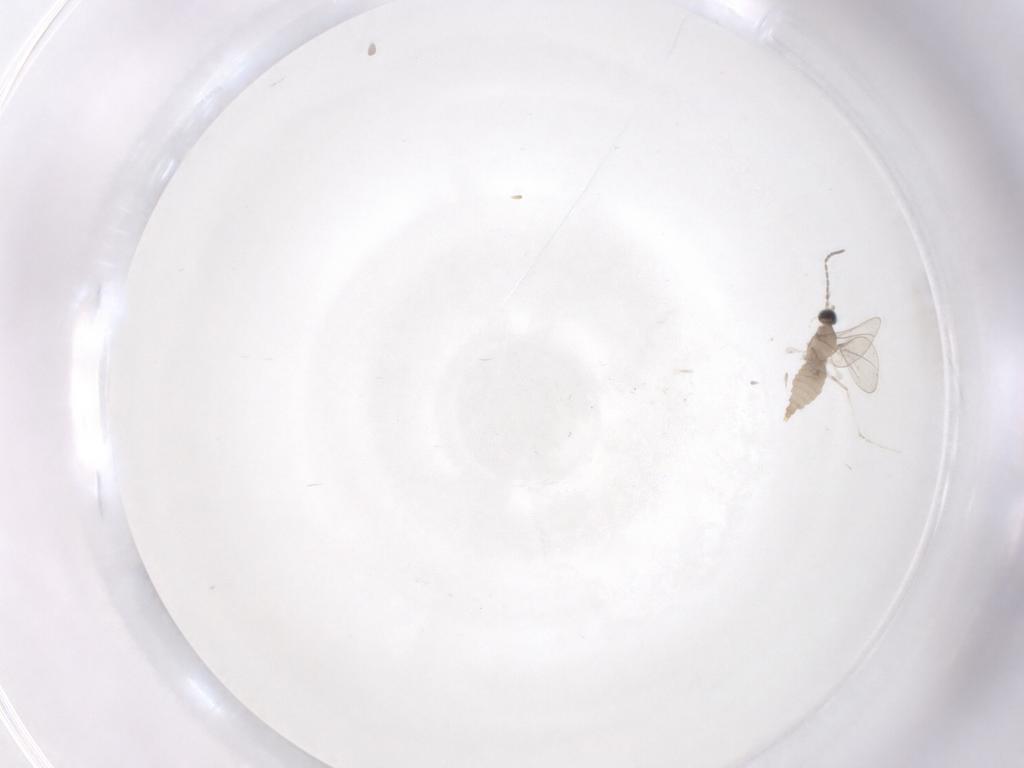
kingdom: Animalia
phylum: Arthropoda
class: Insecta
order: Diptera
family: Cecidomyiidae
